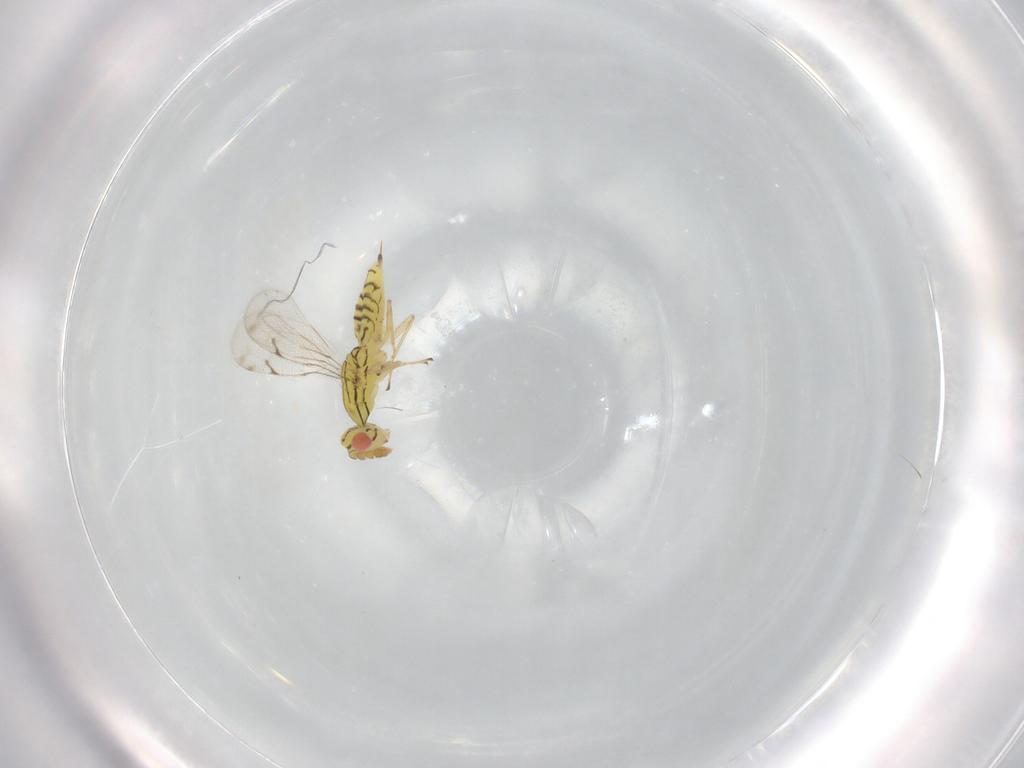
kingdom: Animalia
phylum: Arthropoda
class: Insecta
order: Hymenoptera
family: Eulophidae
